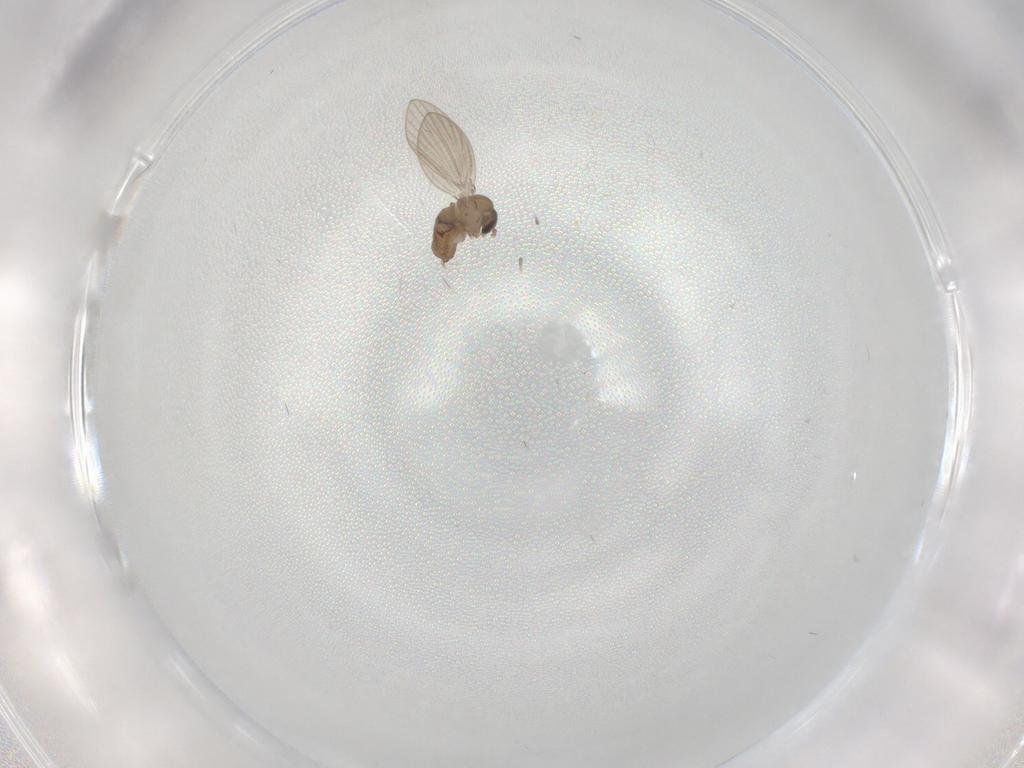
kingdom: Animalia
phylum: Arthropoda
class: Insecta
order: Diptera
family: Psychodidae
